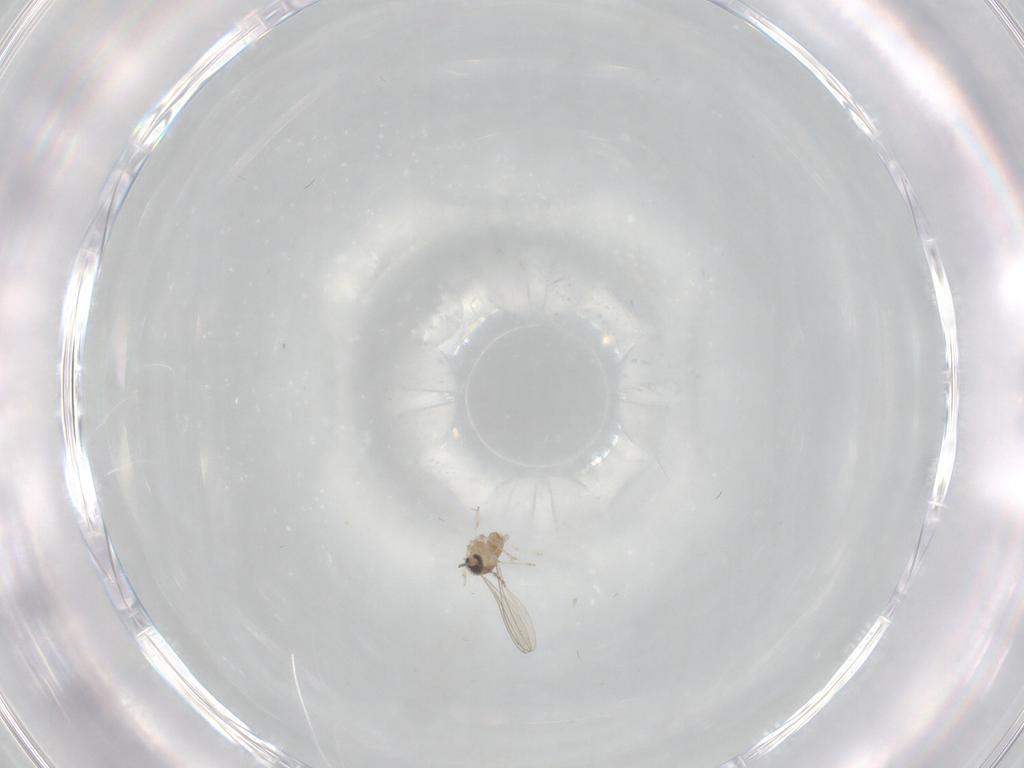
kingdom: Animalia
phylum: Arthropoda
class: Insecta
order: Diptera
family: Cecidomyiidae
